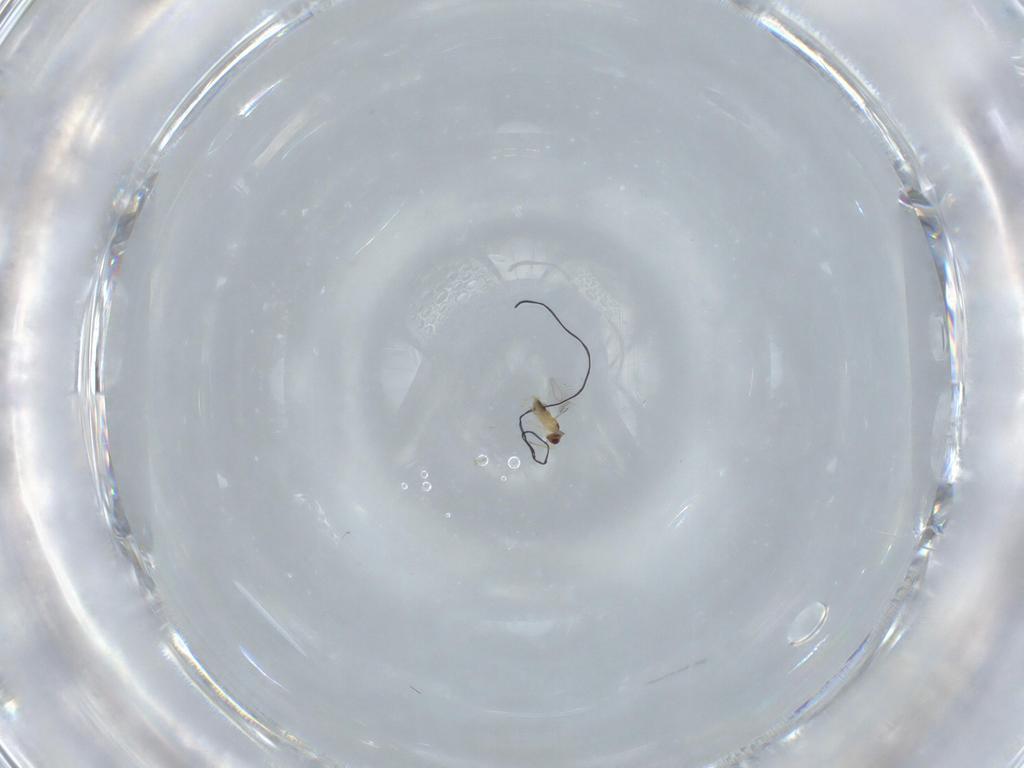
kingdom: Animalia
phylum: Arthropoda
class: Insecta
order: Hymenoptera
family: Mymaridae
